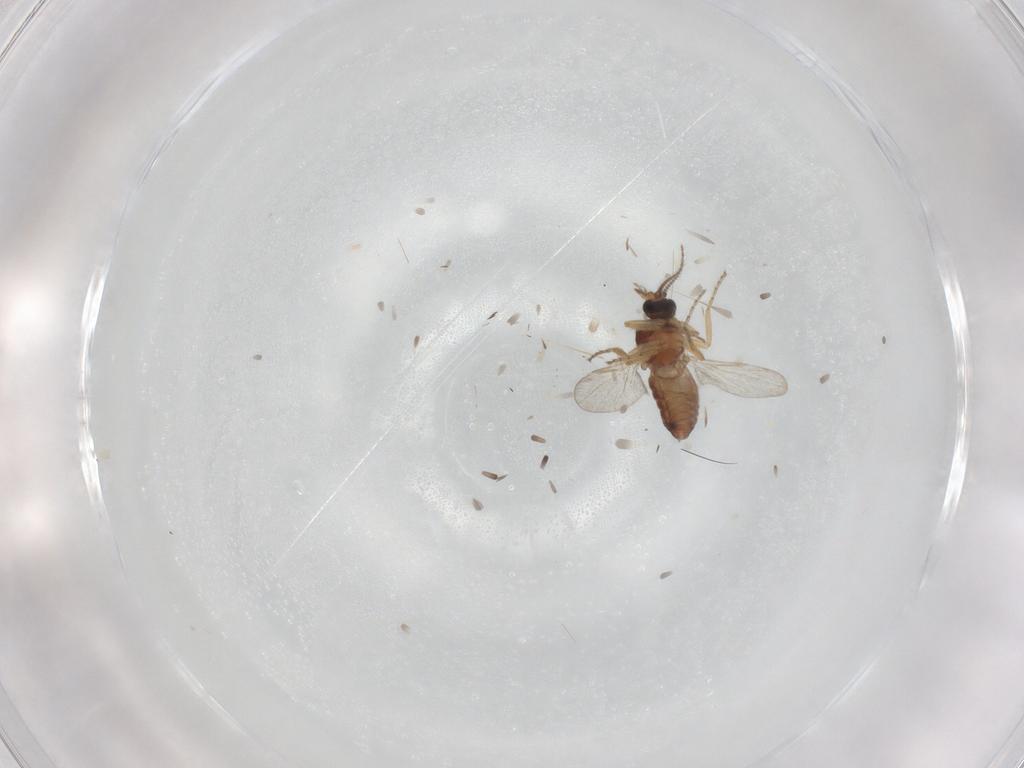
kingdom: Animalia
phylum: Arthropoda
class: Insecta
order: Diptera
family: Ceratopogonidae
